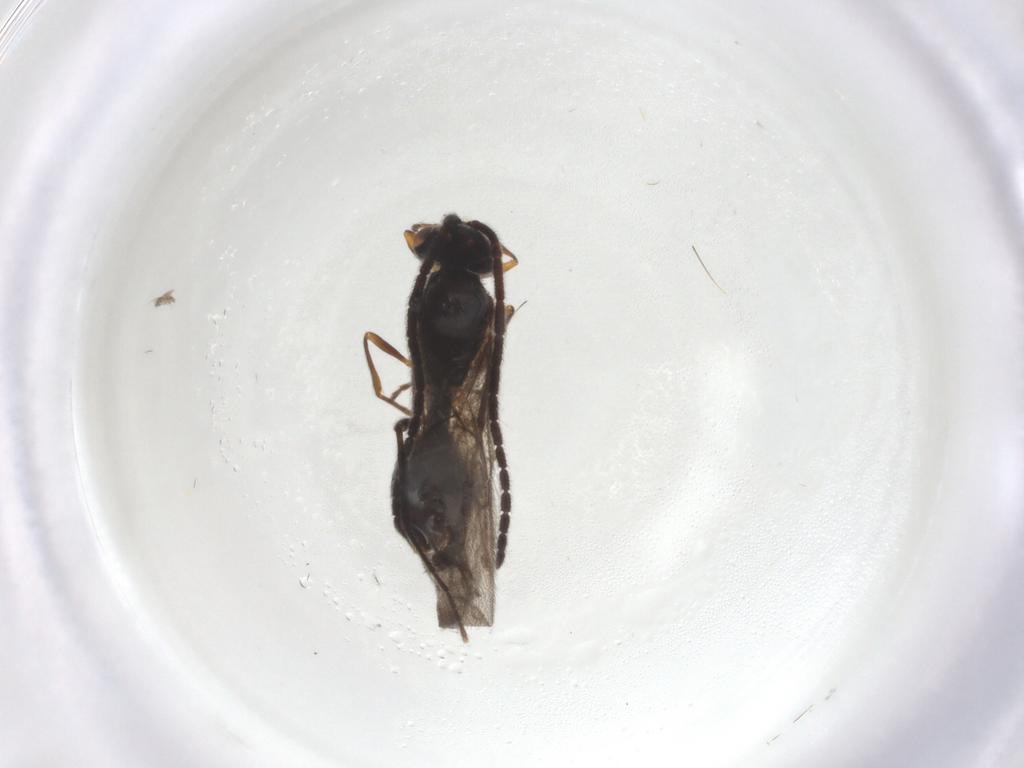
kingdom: Animalia
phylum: Arthropoda
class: Insecta
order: Hymenoptera
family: Diapriidae
